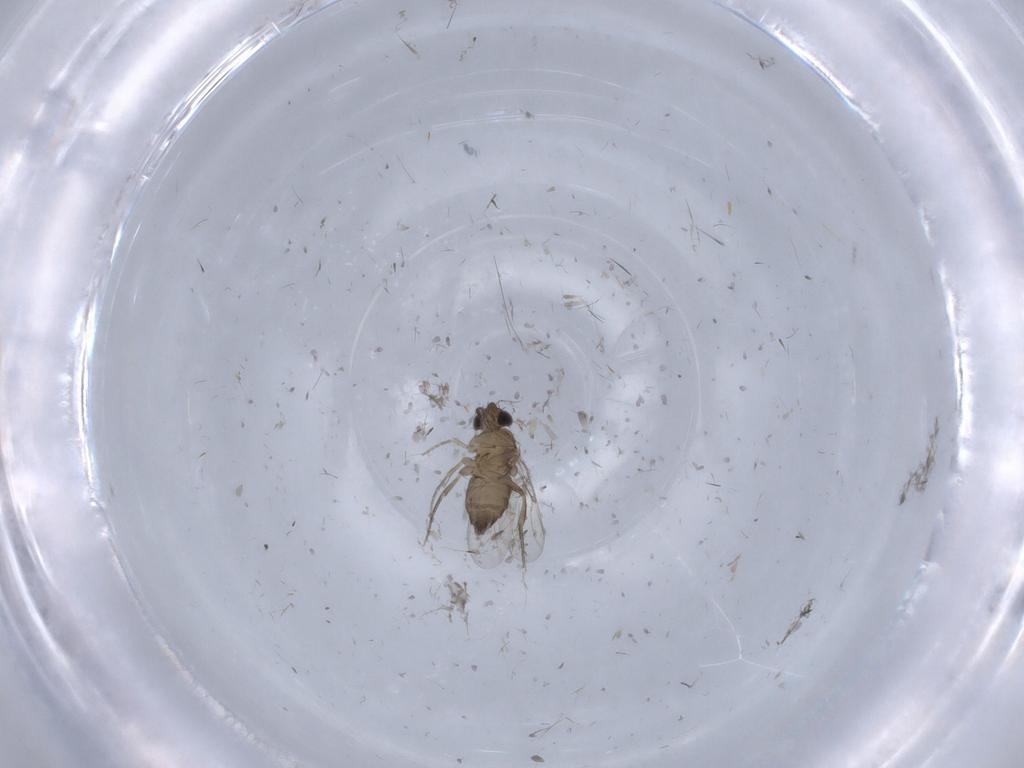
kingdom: Animalia
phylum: Arthropoda
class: Insecta
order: Diptera
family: Phoridae
